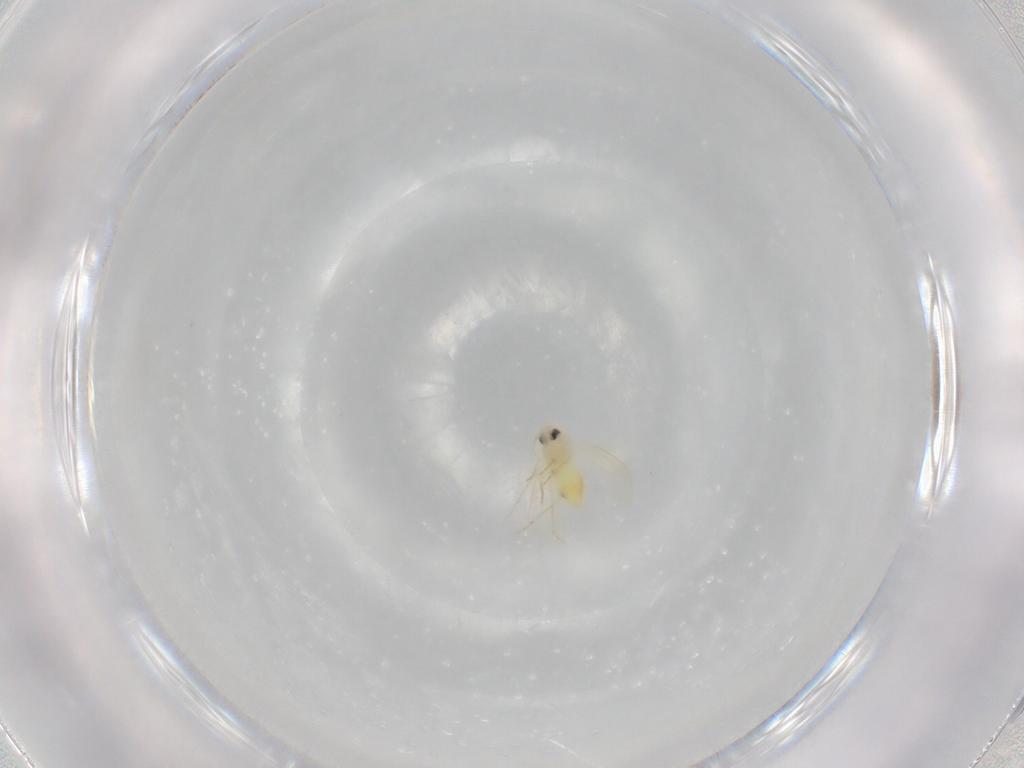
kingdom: Animalia
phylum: Arthropoda
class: Insecta
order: Hemiptera
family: Aleyrodidae
